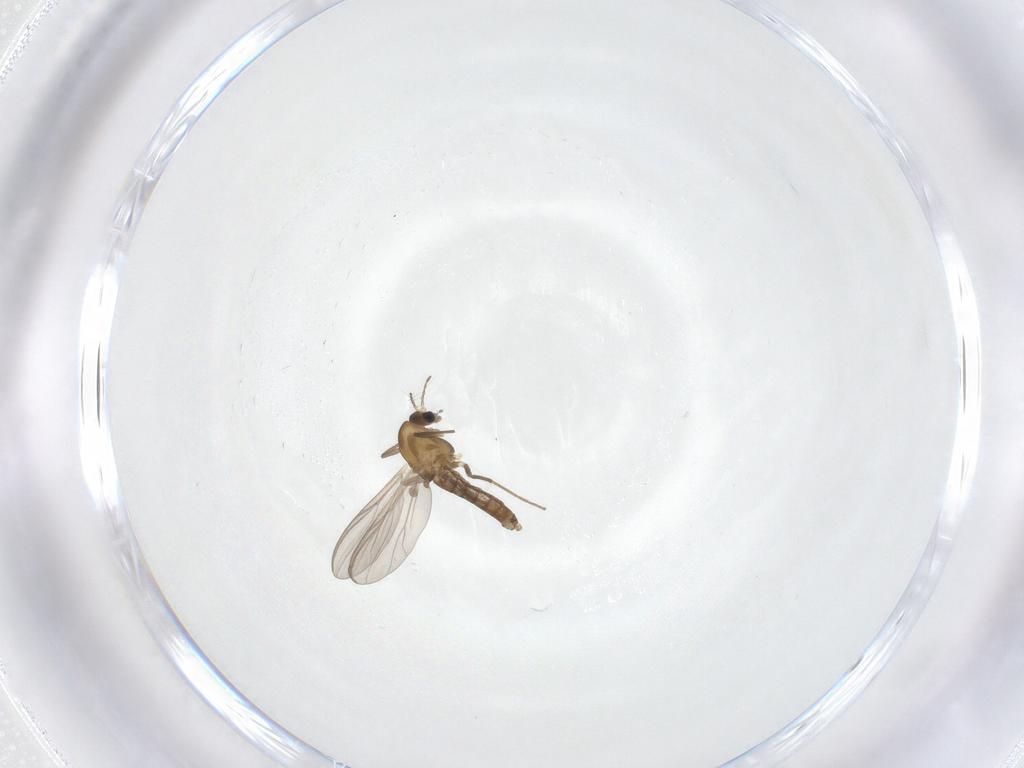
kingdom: Animalia
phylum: Arthropoda
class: Insecta
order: Diptera
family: Chironomidae
